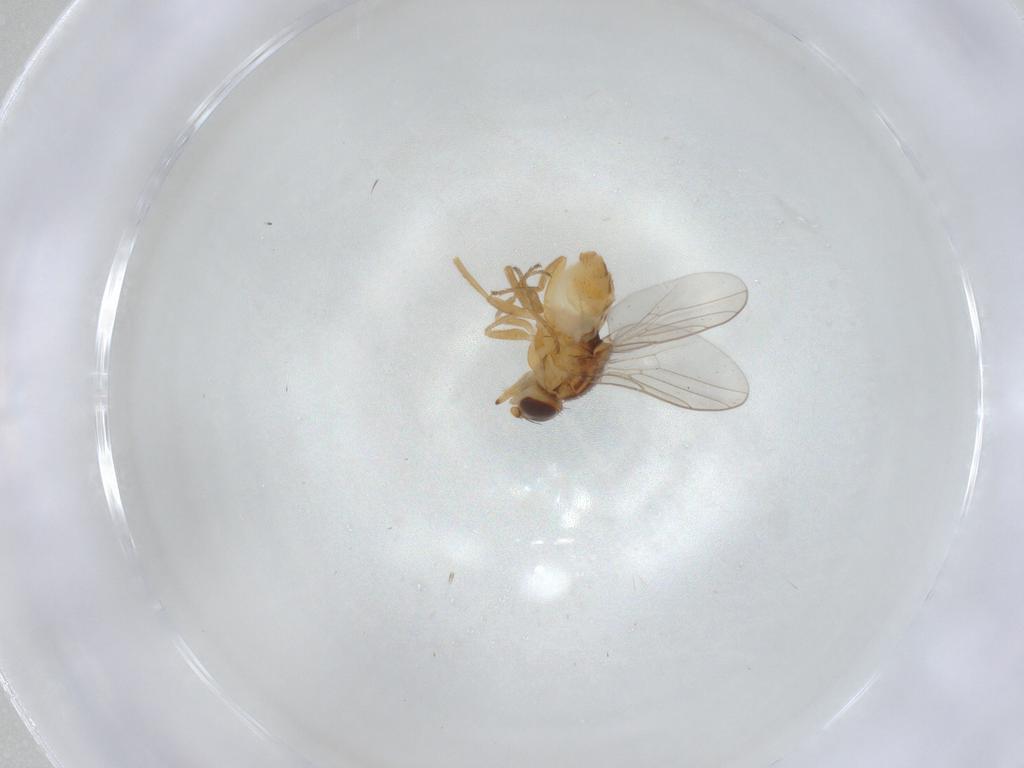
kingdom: Animalia
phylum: Arthropoda
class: Insecta
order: Diptera
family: Chloropidae
